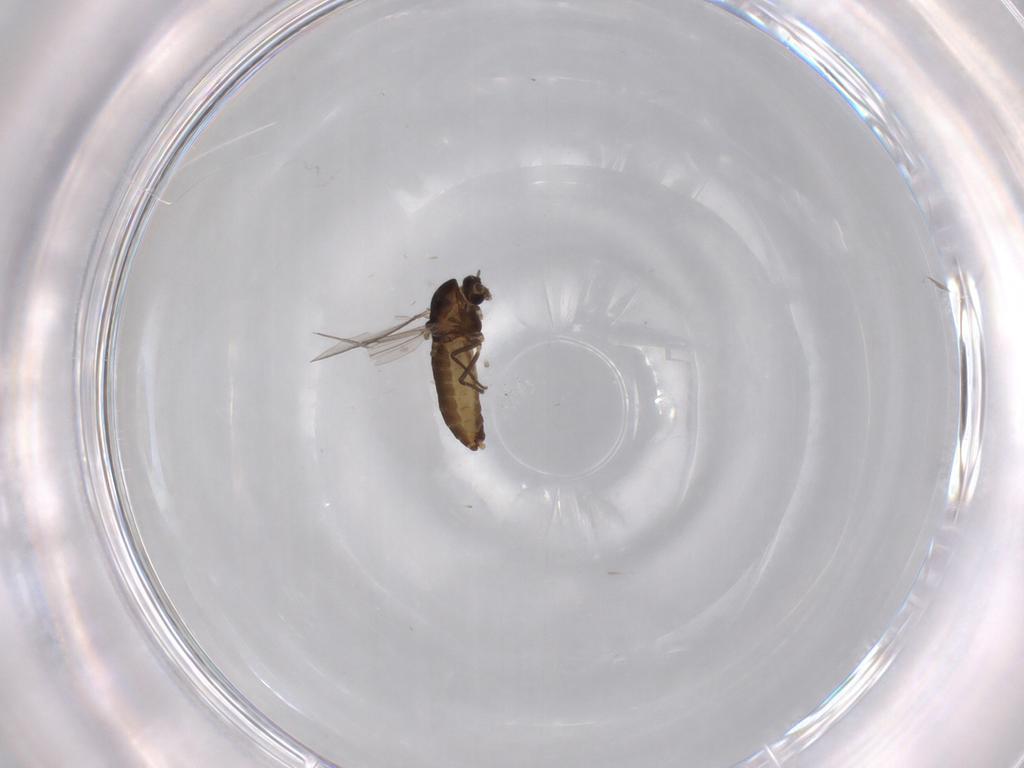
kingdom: Animalia
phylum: Arthropoda
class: Insecta
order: Diptera
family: Chironomidae
